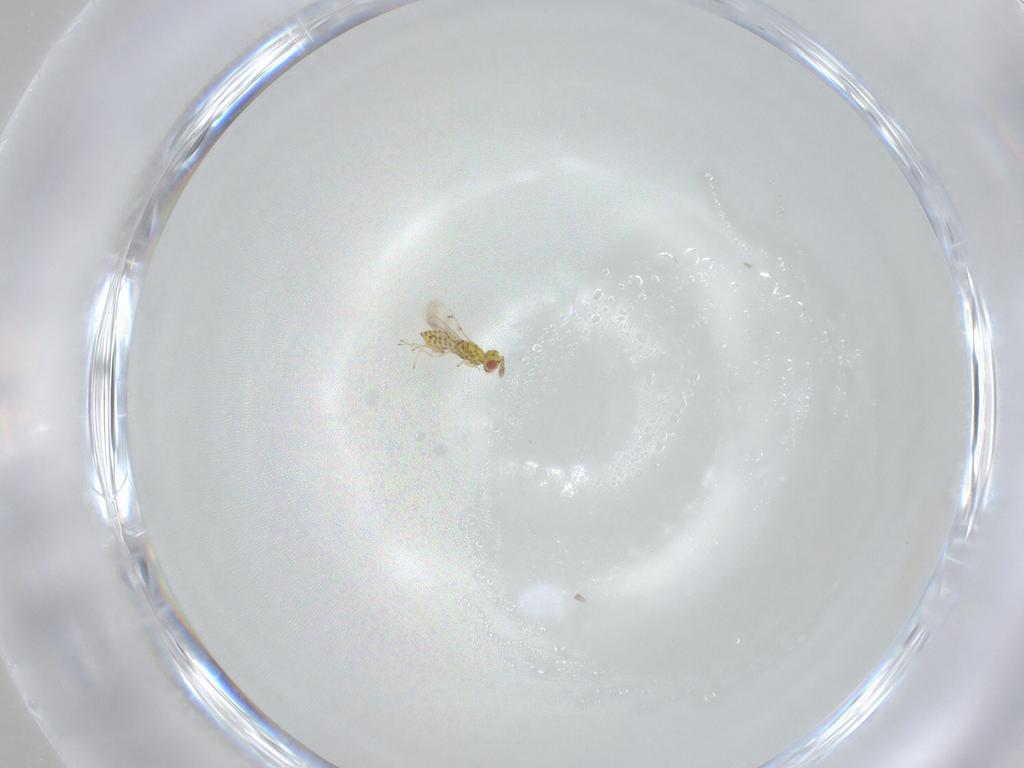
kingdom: Animalia
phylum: Arthropoda
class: Insecta
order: Hymenoptera
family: Eulophidae
